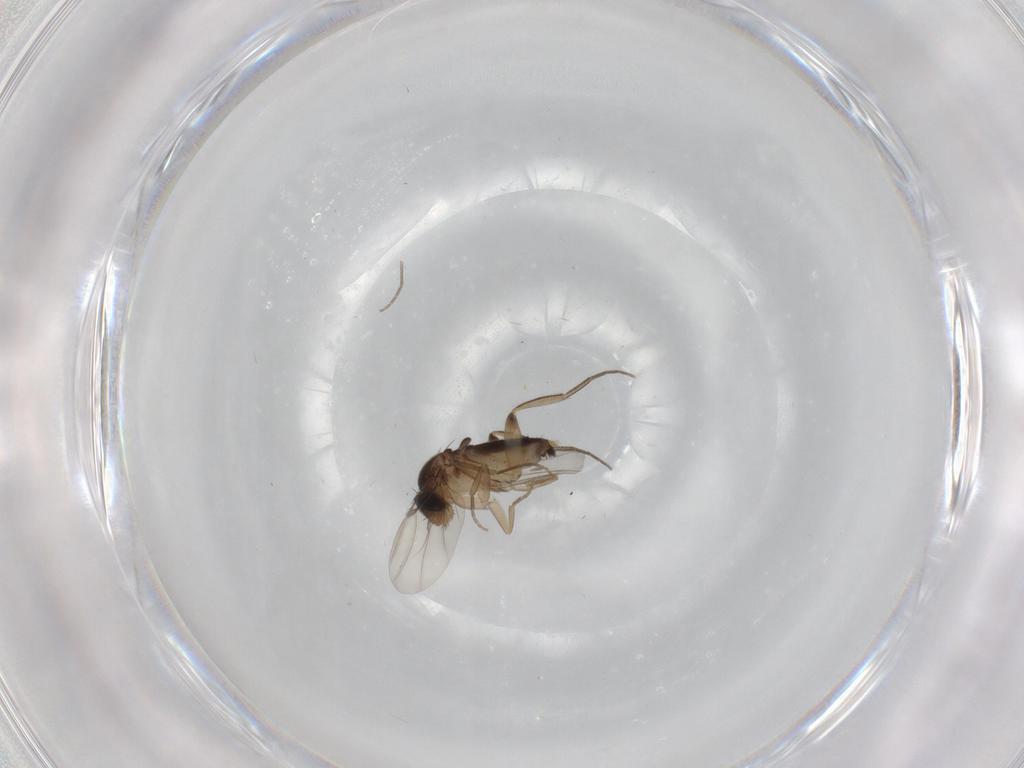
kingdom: Animalia
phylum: Arthropoda
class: Insecta
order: Diptera
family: Phoridae
